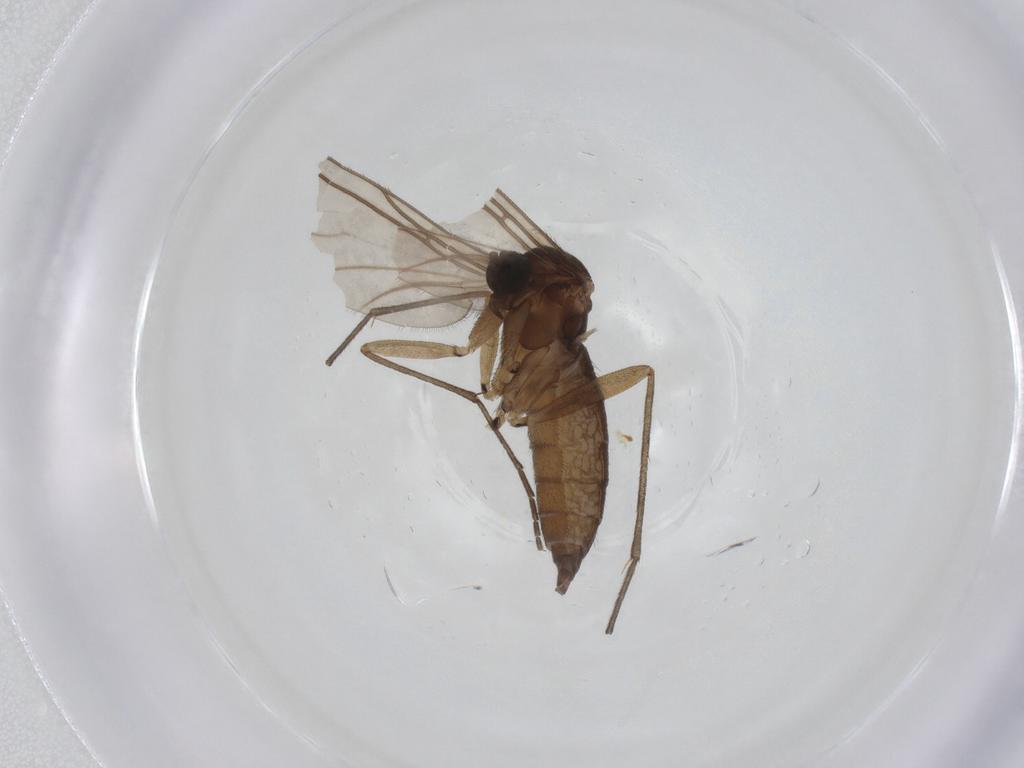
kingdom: Animalia
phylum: Arthropoda
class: Insecta
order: Diptera
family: Sciaridae
